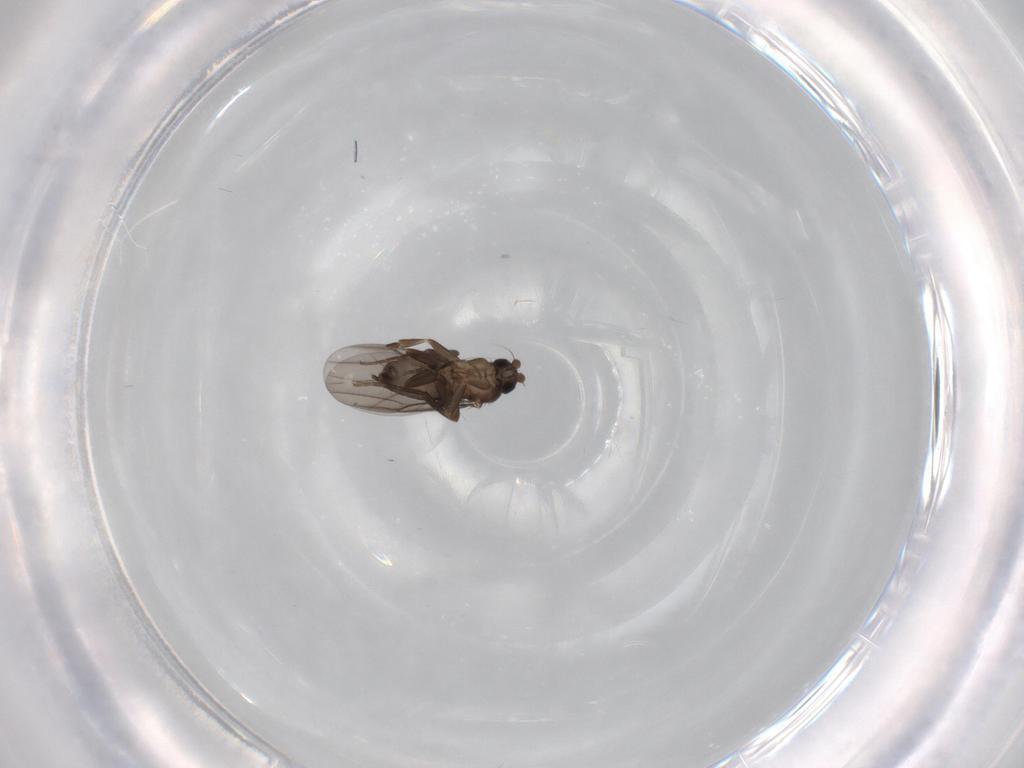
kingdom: Animalia
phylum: Arthropoda
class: Insecta
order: Diptera
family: Phoridae
